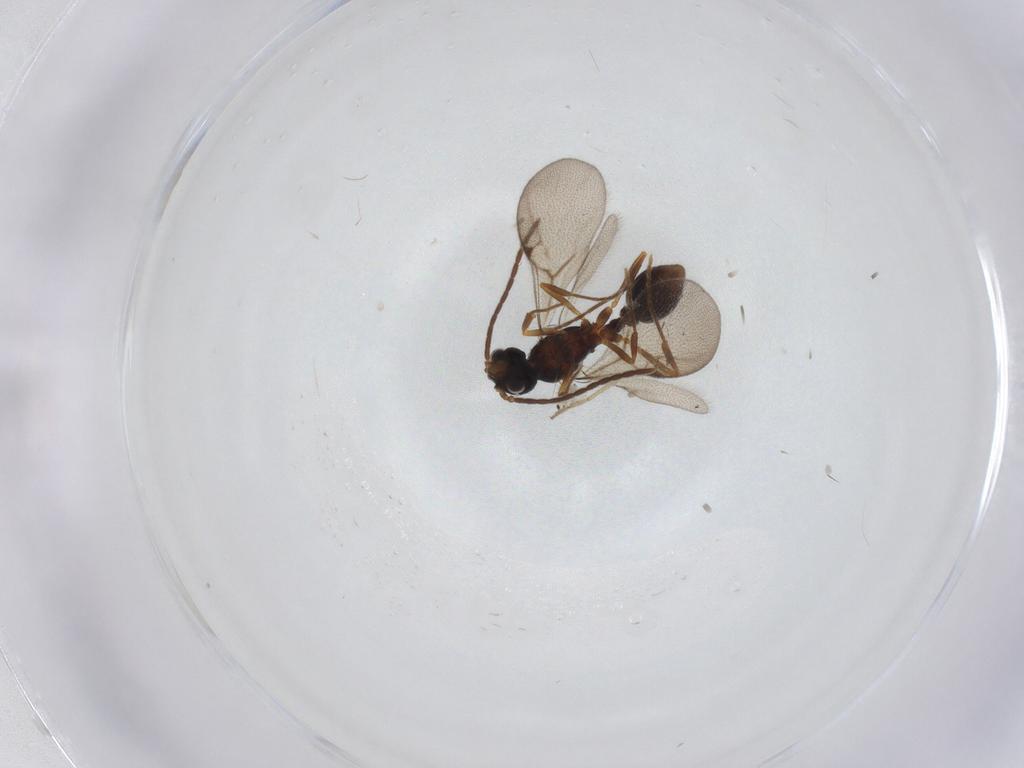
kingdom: Animalia
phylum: Arthropoda
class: Insecta
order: Hymenoptera
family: Formicidae
